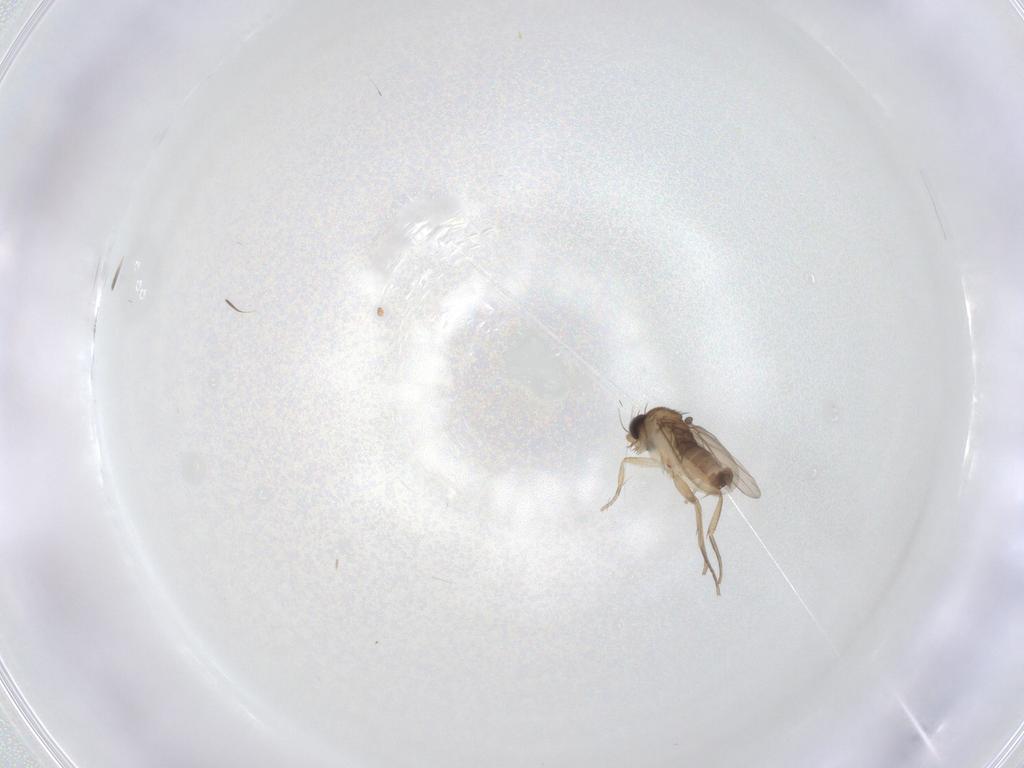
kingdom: Animalia
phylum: Arthropoda
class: Insecta
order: Diptera
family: Phoridae
